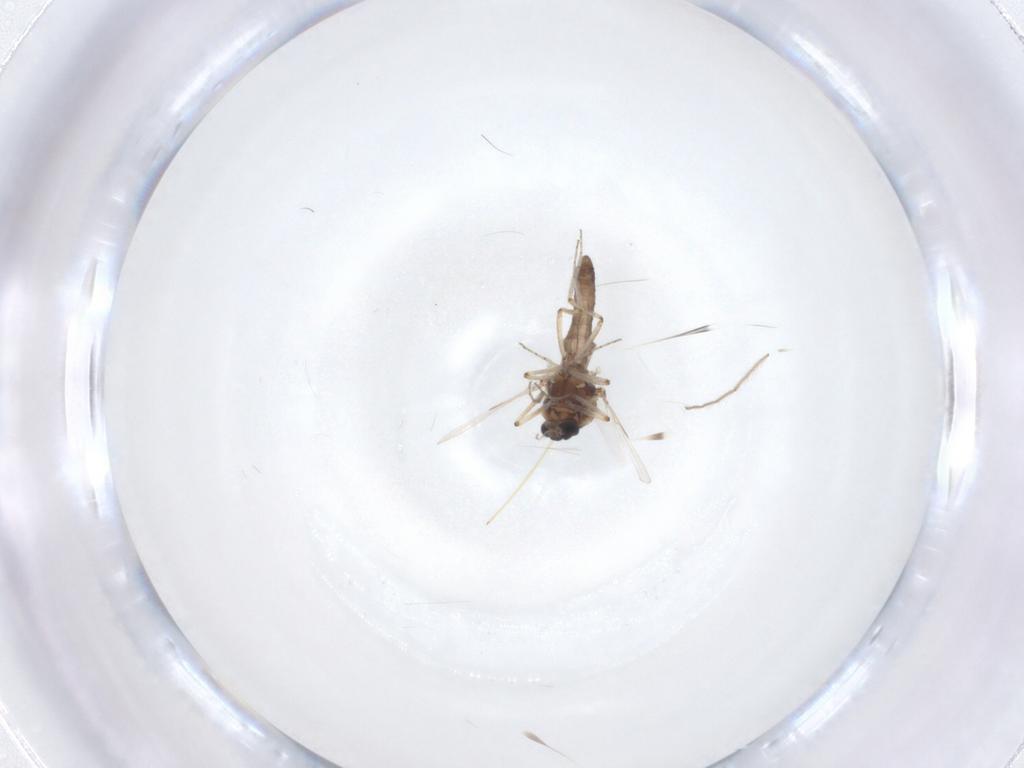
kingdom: Animalia
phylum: Arthropoda
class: Insecta
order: Diptera
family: Ceratopogonidae
